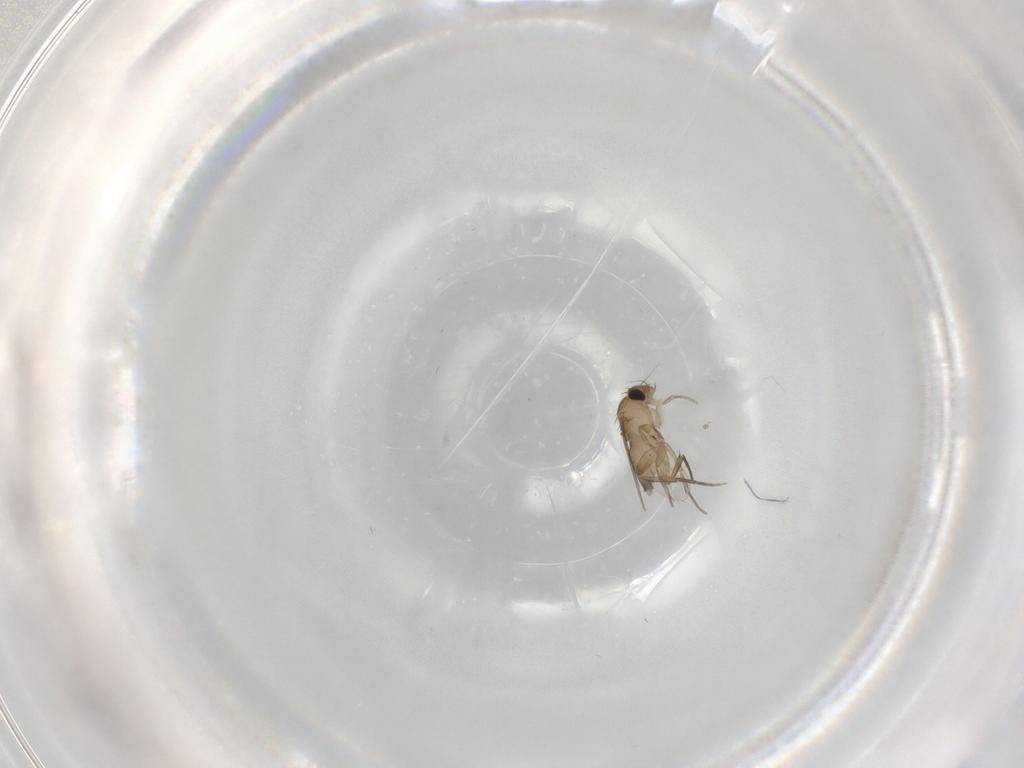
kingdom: Animalia
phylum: Arthropoda
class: Insecta
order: Diptera
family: Phoridae
